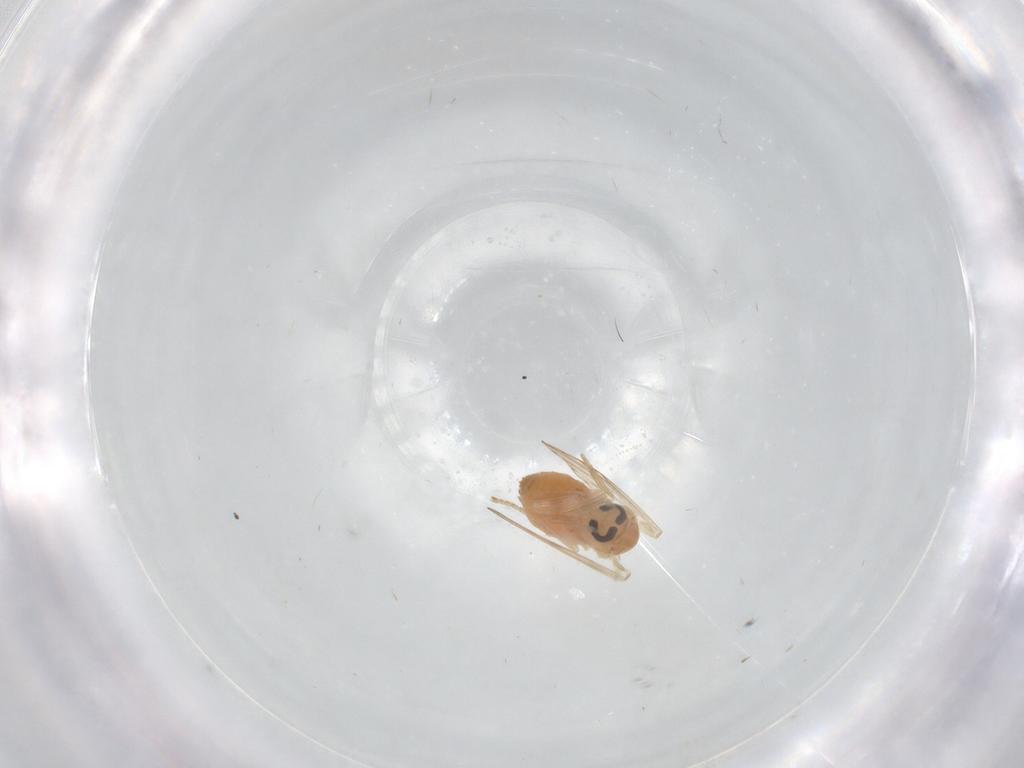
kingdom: Animalia
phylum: Arthropoda
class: Insecta
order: Diptera
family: Psychodidae
